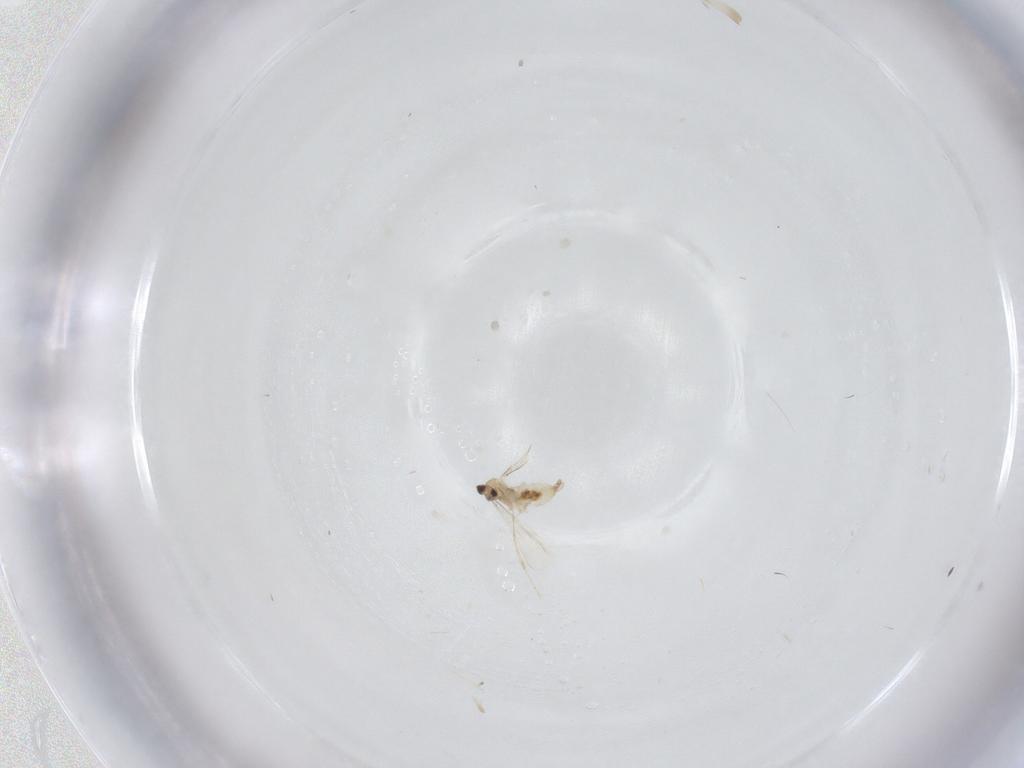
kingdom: Animalia
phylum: Arthropoda
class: Insecta
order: Diptera
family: Cecidomyiidae
